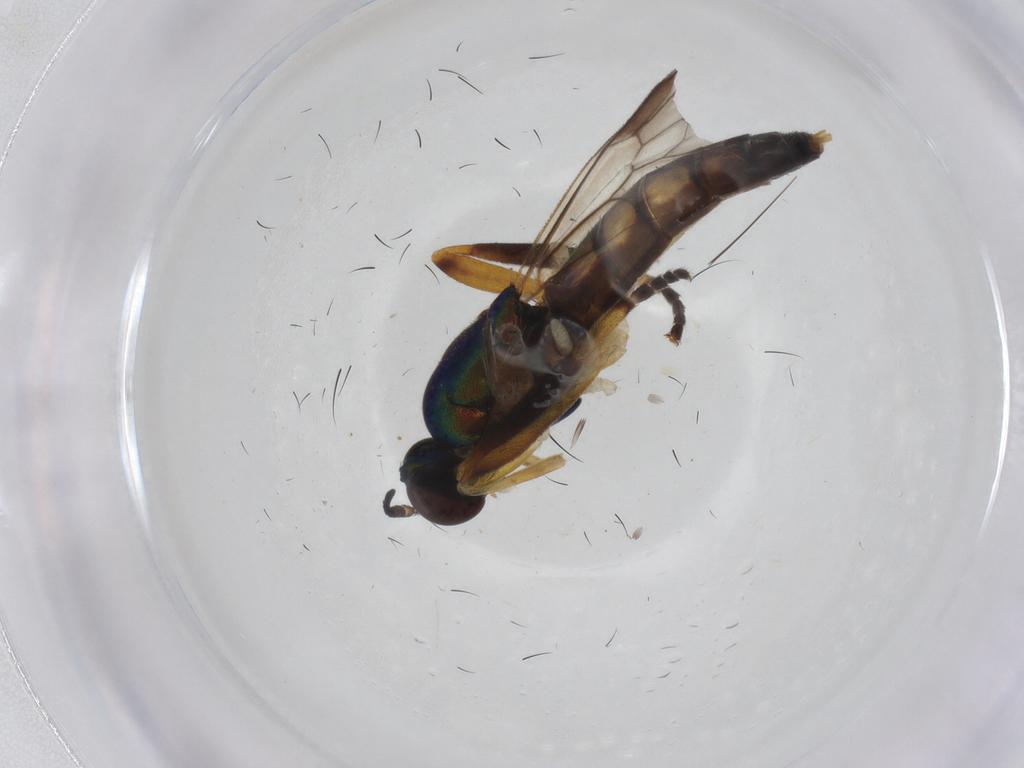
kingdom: Animalia
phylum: Arthropoda
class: Insecta
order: Diptera
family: Stratiomyidae
